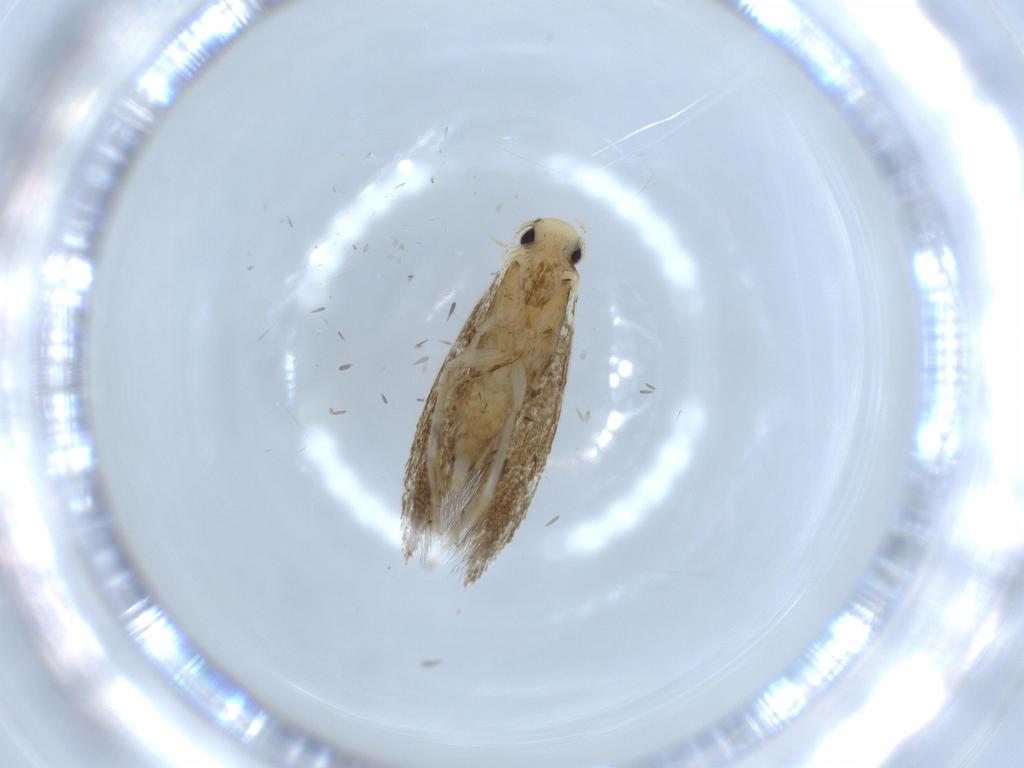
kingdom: Animalia
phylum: Arthropoda
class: Insecta
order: Lepidoptera
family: Tineidae
